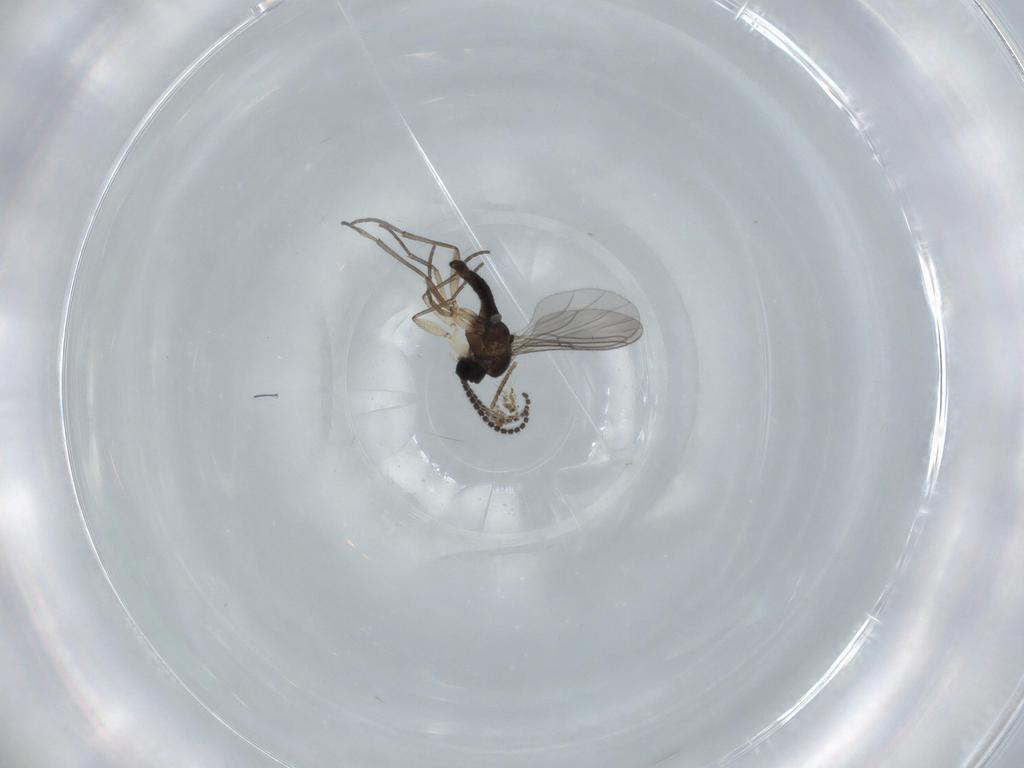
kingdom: Animalia
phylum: Arthropoda
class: Insecta
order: Diptera
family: Sciaridae
